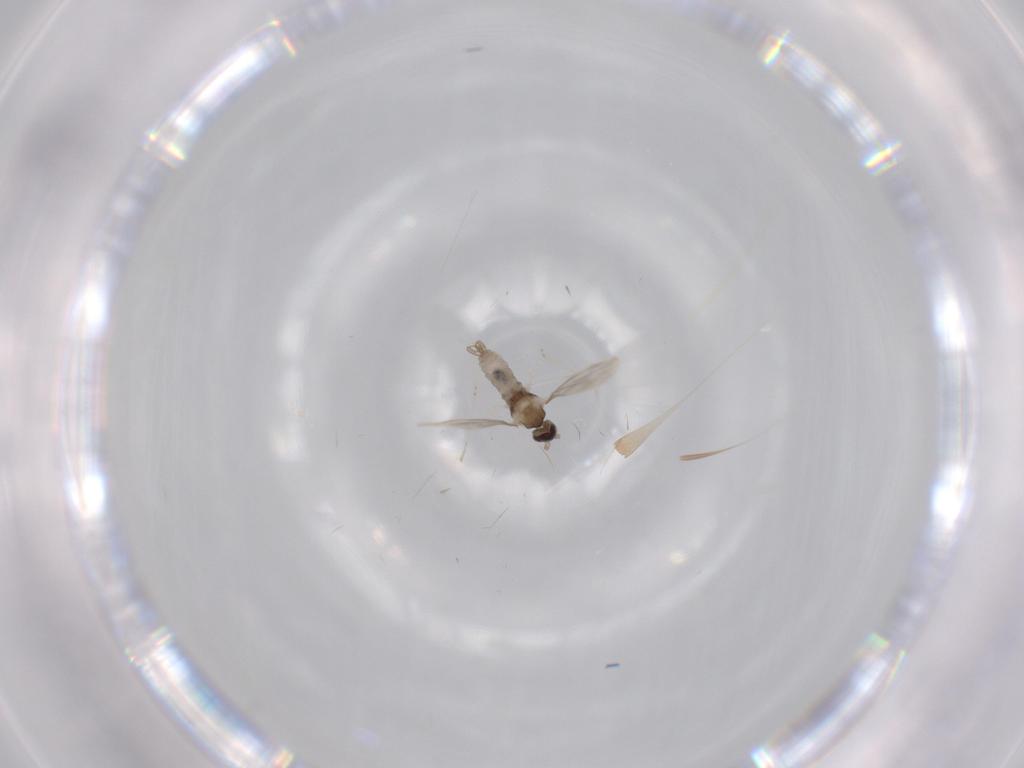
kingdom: Animalia
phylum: Arthropoda
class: Insecta
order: Diptera
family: Cecidomyiidae
